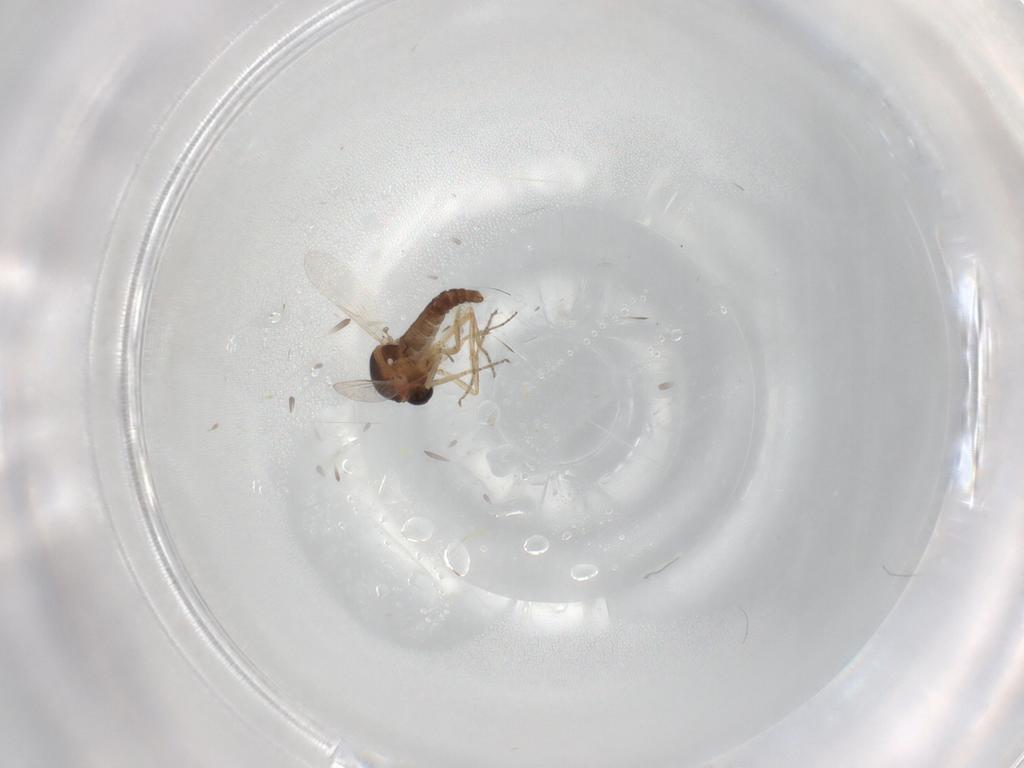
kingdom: Animalia
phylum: Arthropoda
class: Insecta
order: Diptera
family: Ceratopogonidae
